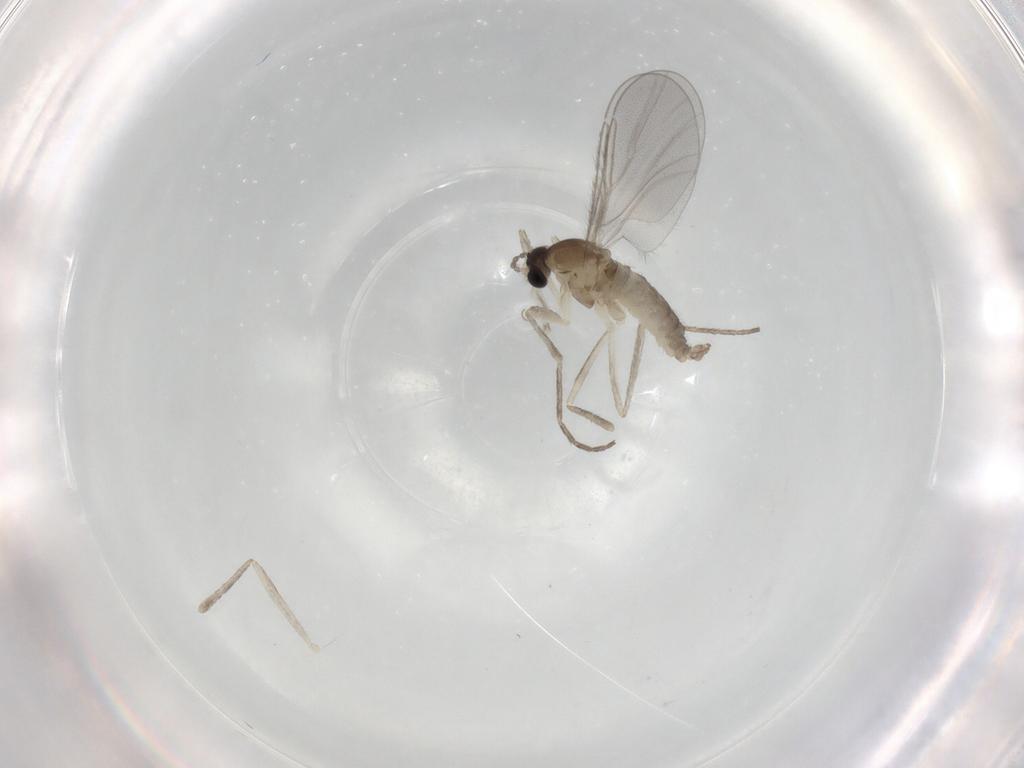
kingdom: Animalia
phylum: Arthropoda
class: Insecta
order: Diptera
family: Cecidomyiidae
